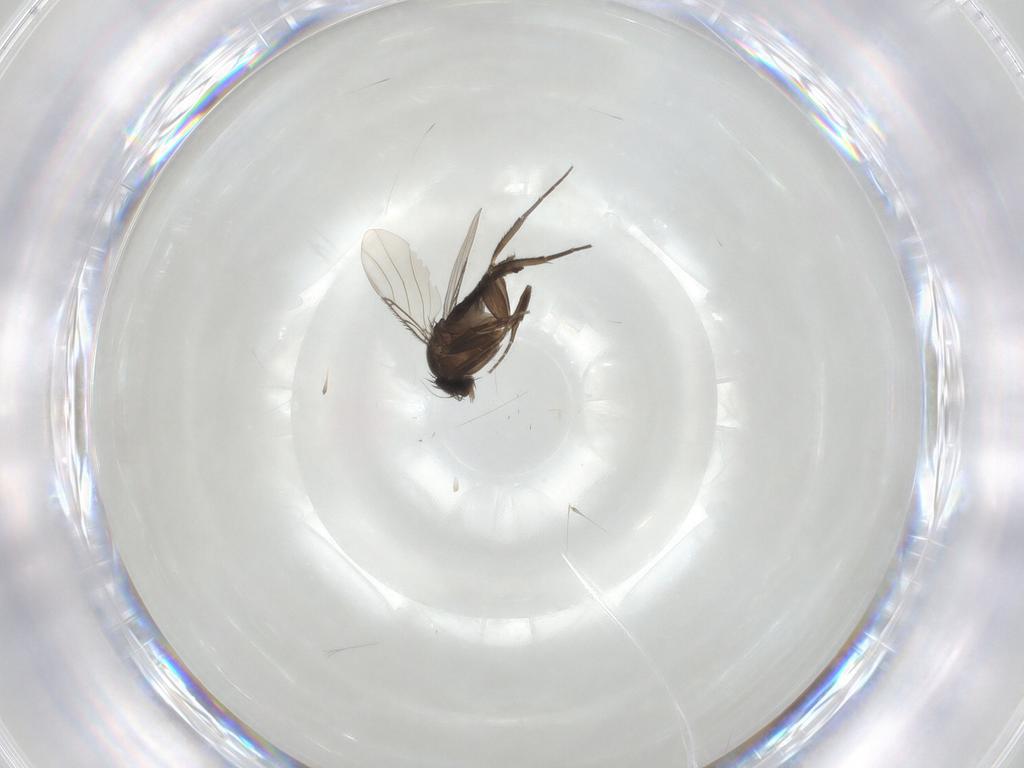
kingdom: Animalia
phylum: Arthropoda
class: Insecta
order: Diptera
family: Phoridae
